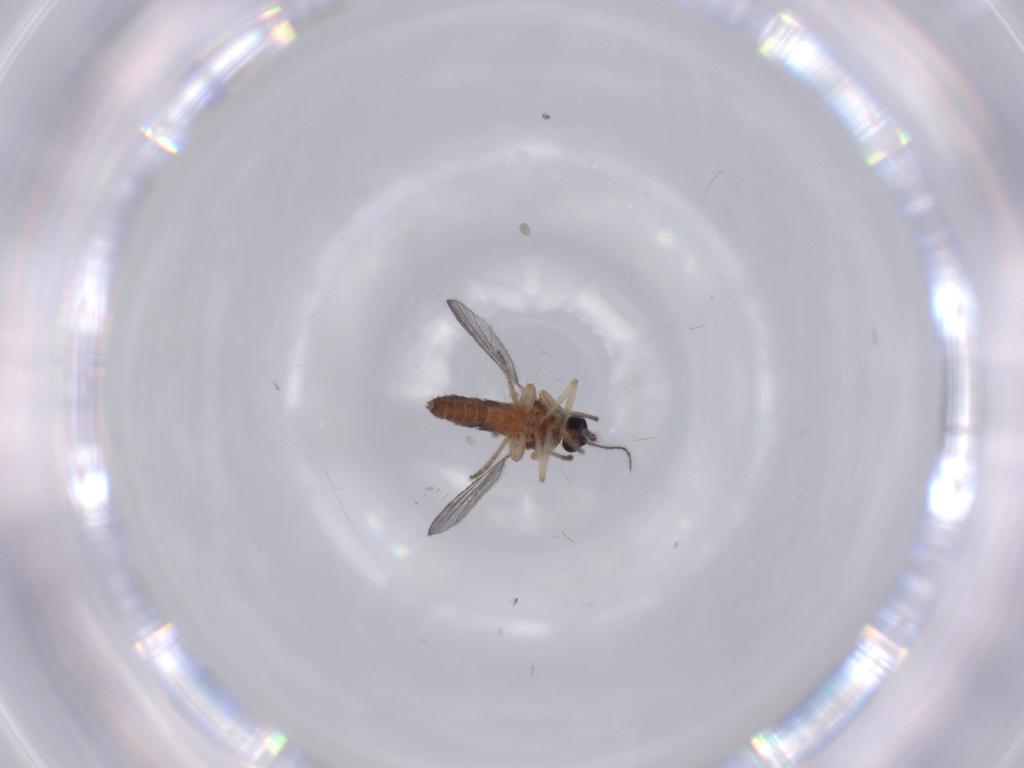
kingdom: Animalia
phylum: Arthropoda
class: Insecta
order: Diptera
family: Ceratopogonidae
